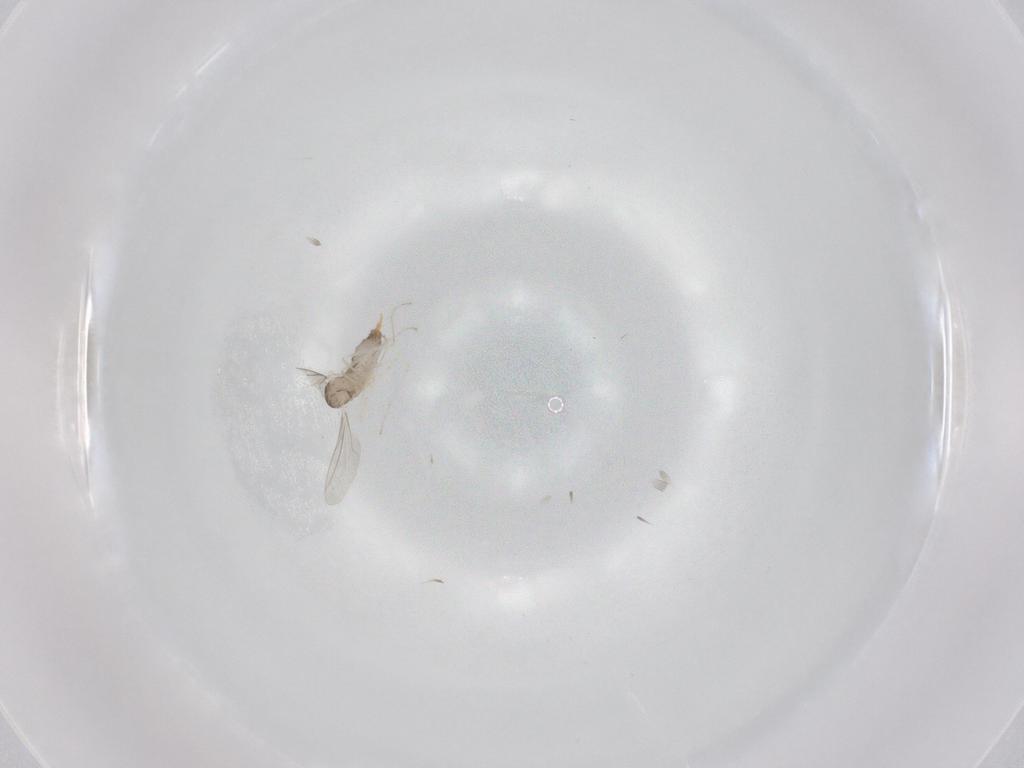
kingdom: Animalia
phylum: Arthropoda
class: Insecta
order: Diptera
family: Cecidomyiidae
